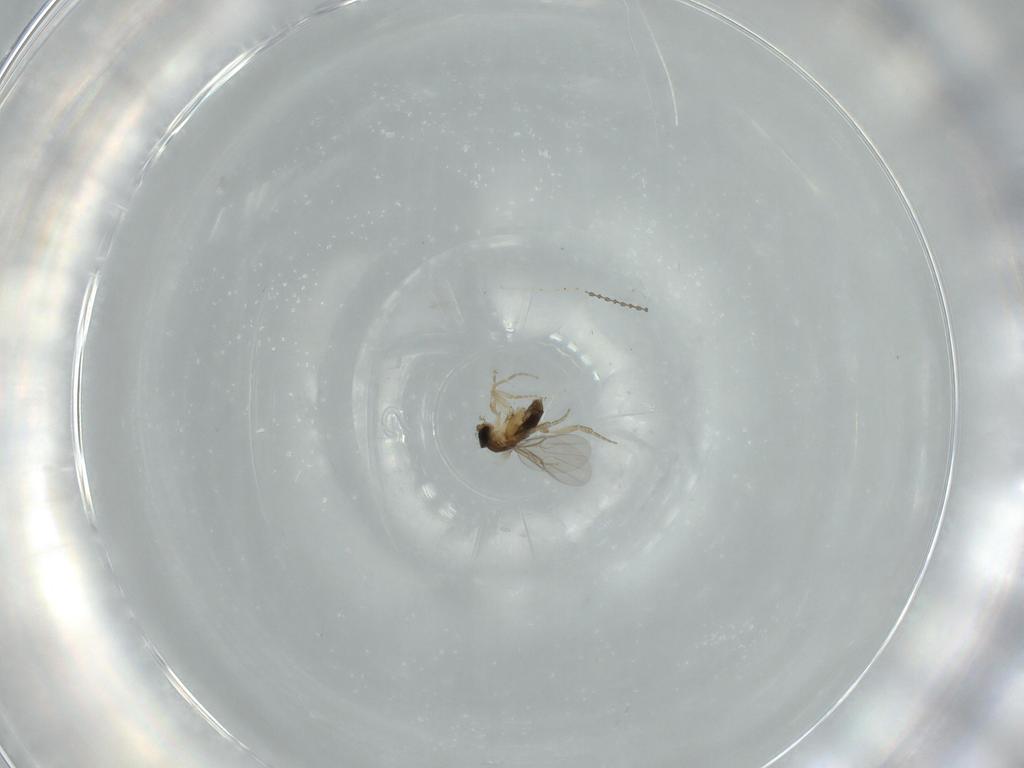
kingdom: Animalia
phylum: Arthropoda
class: Insecta
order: Diptera
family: Phoridae
